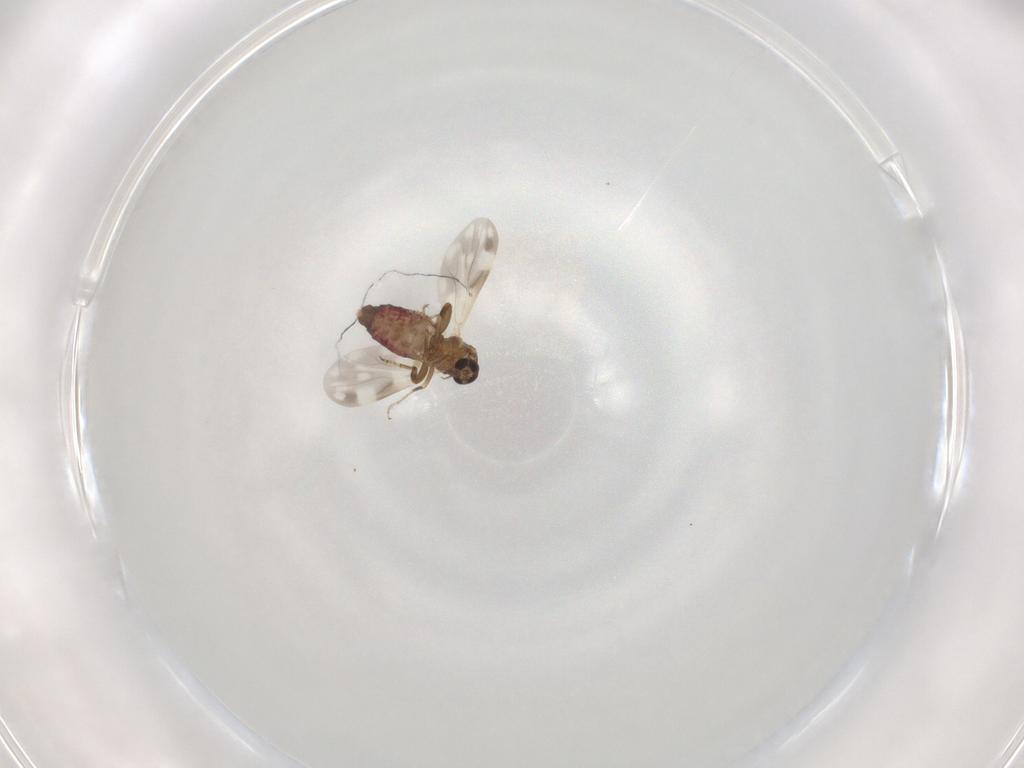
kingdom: Animalia
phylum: Arthropoda
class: Insecta
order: Diptera
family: Ceratopogonidae
